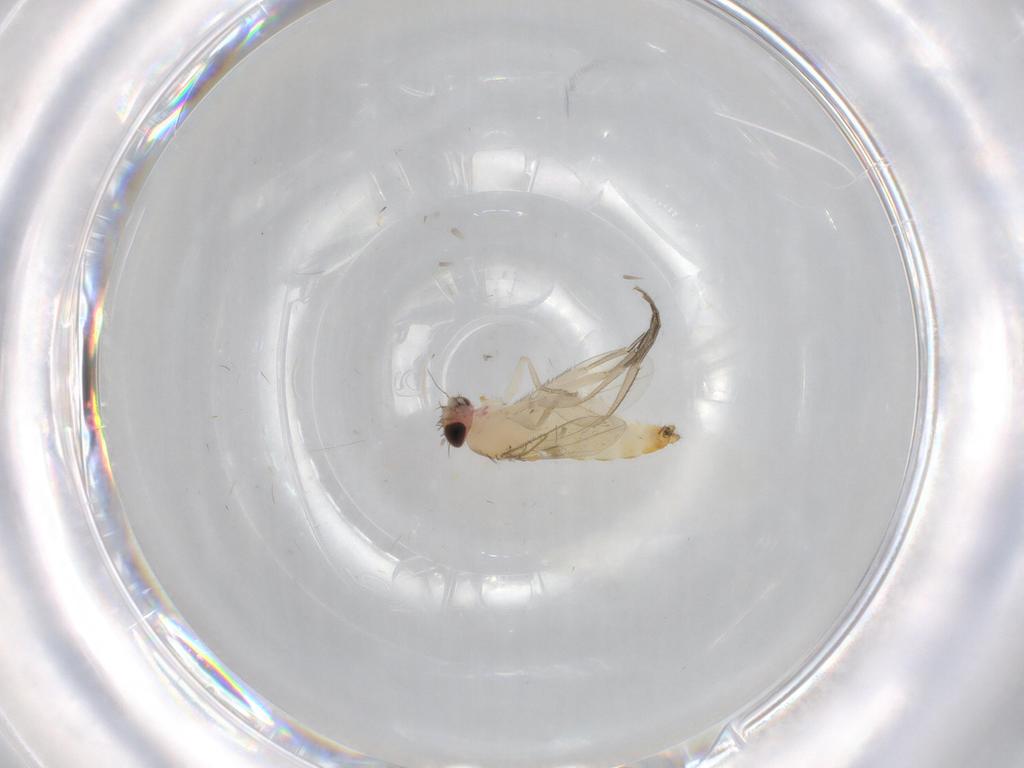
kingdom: Animalia
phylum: Arthropoda
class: Insecta
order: Diptera
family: Phoridae
